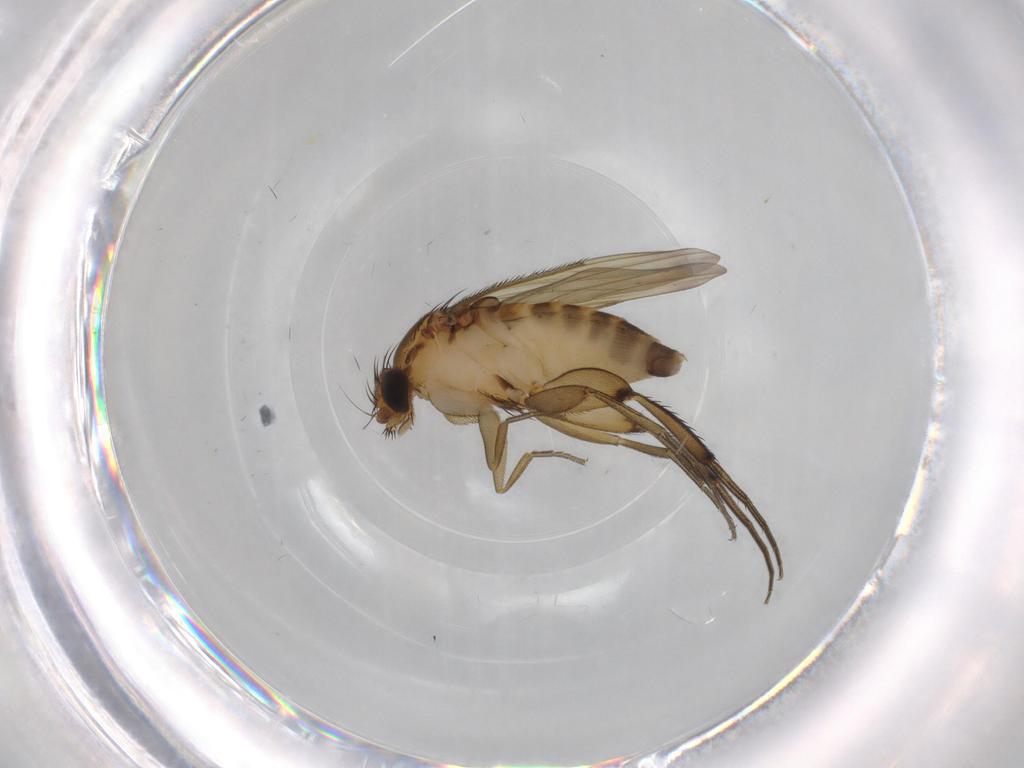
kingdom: Animalia
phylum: Arthropoda
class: Insecta
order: Diptera
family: Phoridae
